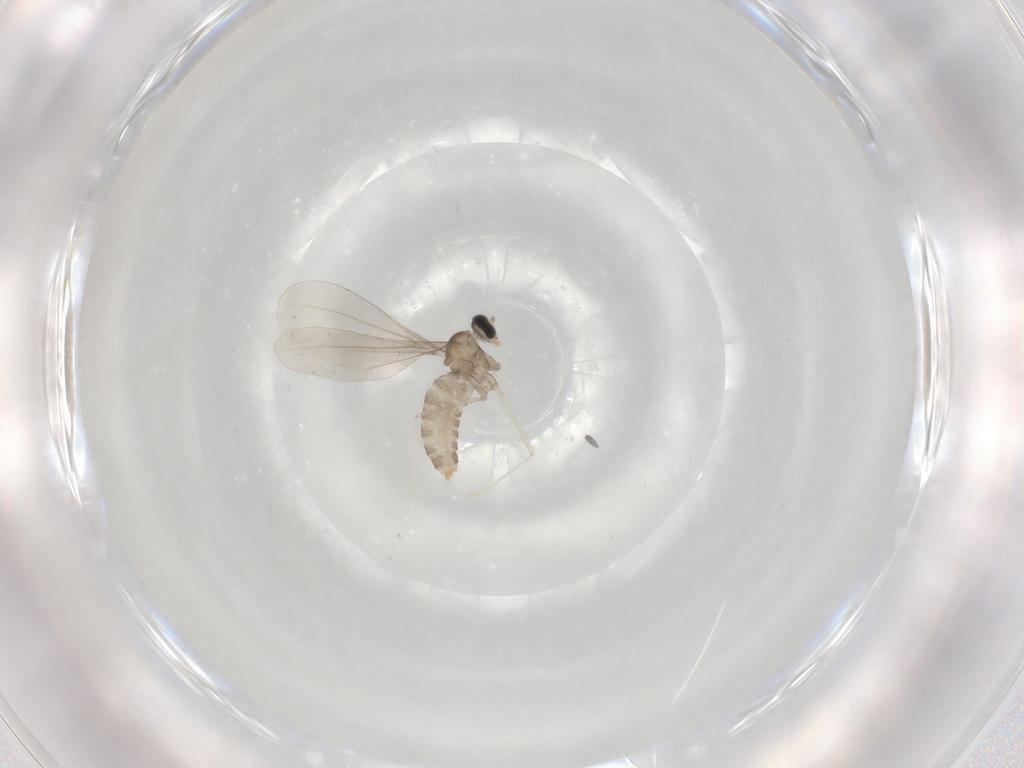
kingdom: Animalia
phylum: Arthropoda
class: Insecta
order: Diptera
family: Cecidomyiidae
